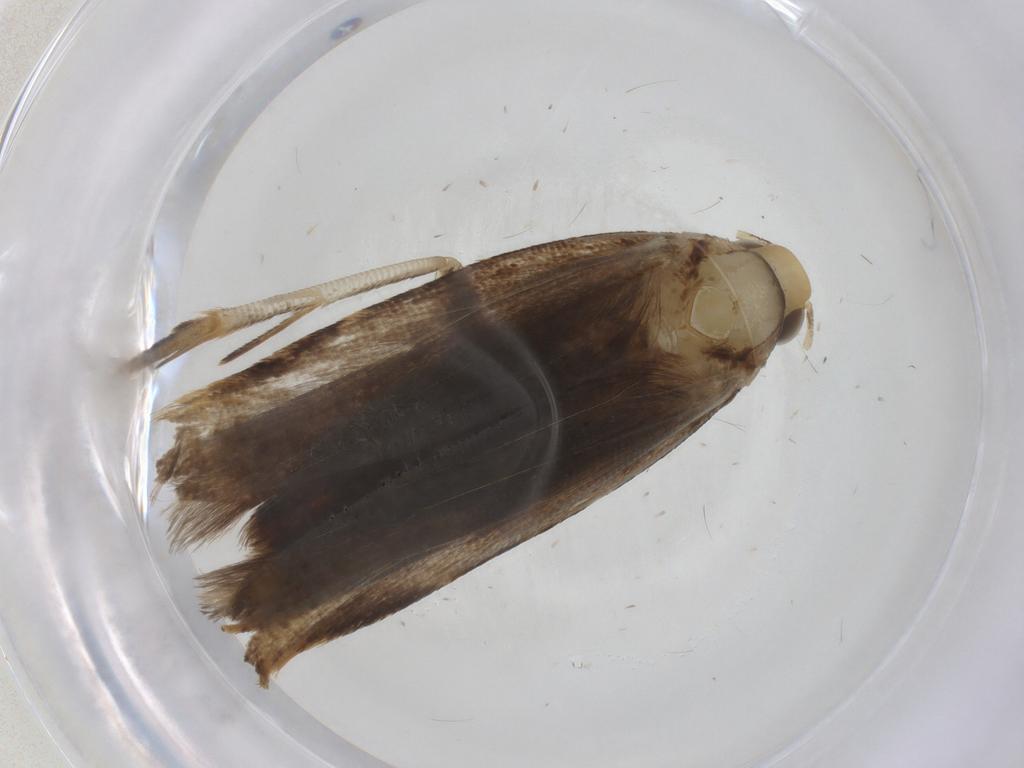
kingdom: Animalia
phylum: Arthropoda
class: Insecta
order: Lepidoptera
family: Gelechiidae
